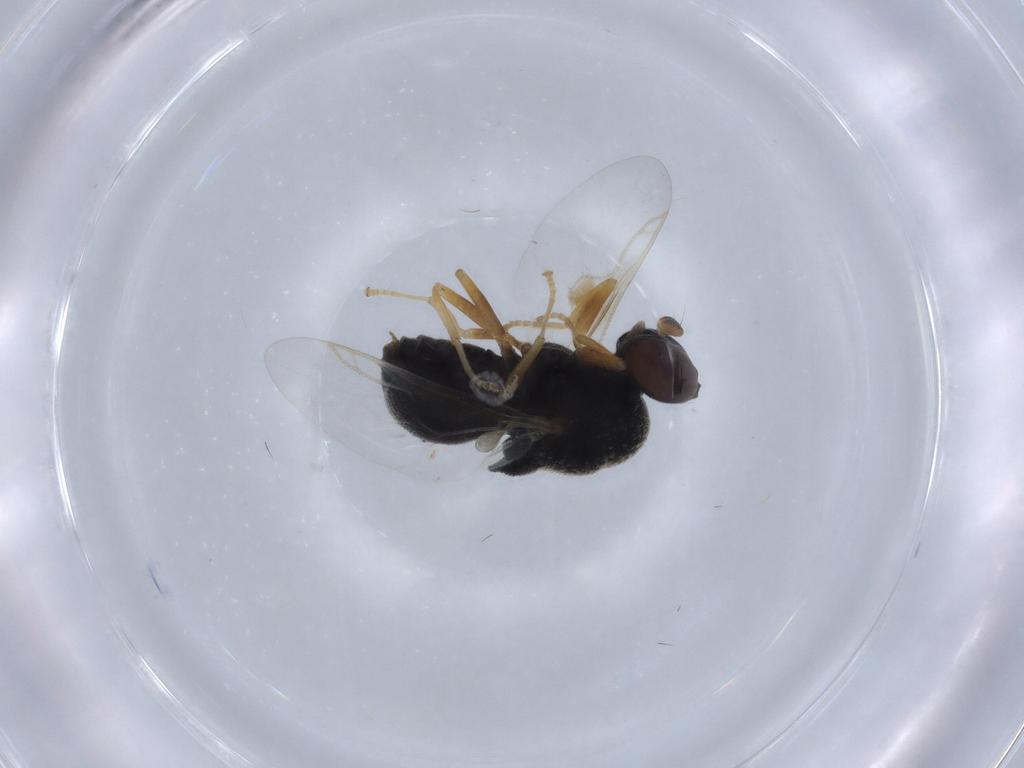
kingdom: Animalia
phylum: Arthropoda
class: Insecta
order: Diptera
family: Stratiomyidae
